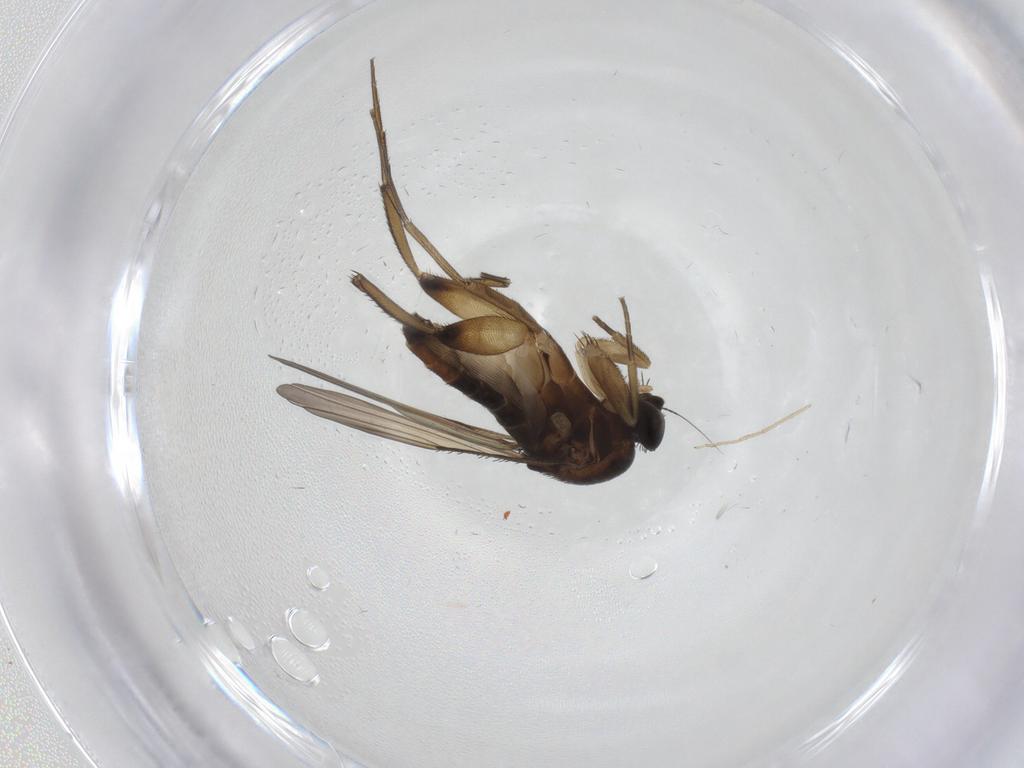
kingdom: Animalia
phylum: Arthropoda
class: Insecta
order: Diptera
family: Phoridae
